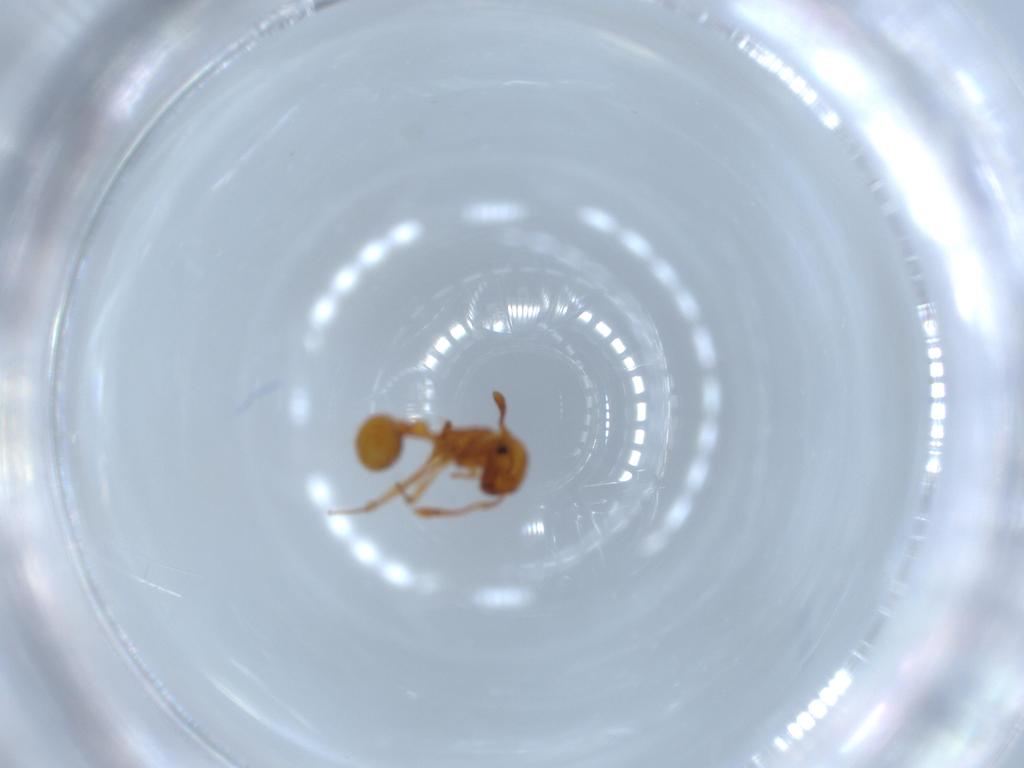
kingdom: Animalia
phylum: Arthropoda
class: Insecta
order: Hymenoptera
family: Formicidae
